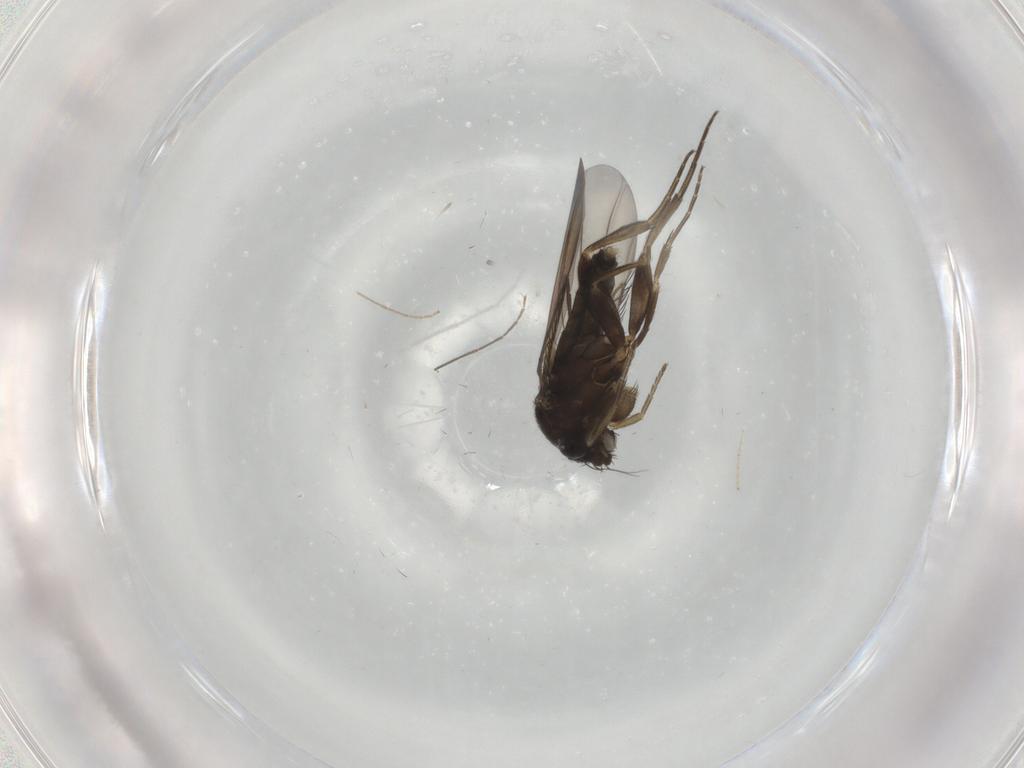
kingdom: Animalia
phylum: Arthropoda
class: Insecta
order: Diptera
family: Phoridae
